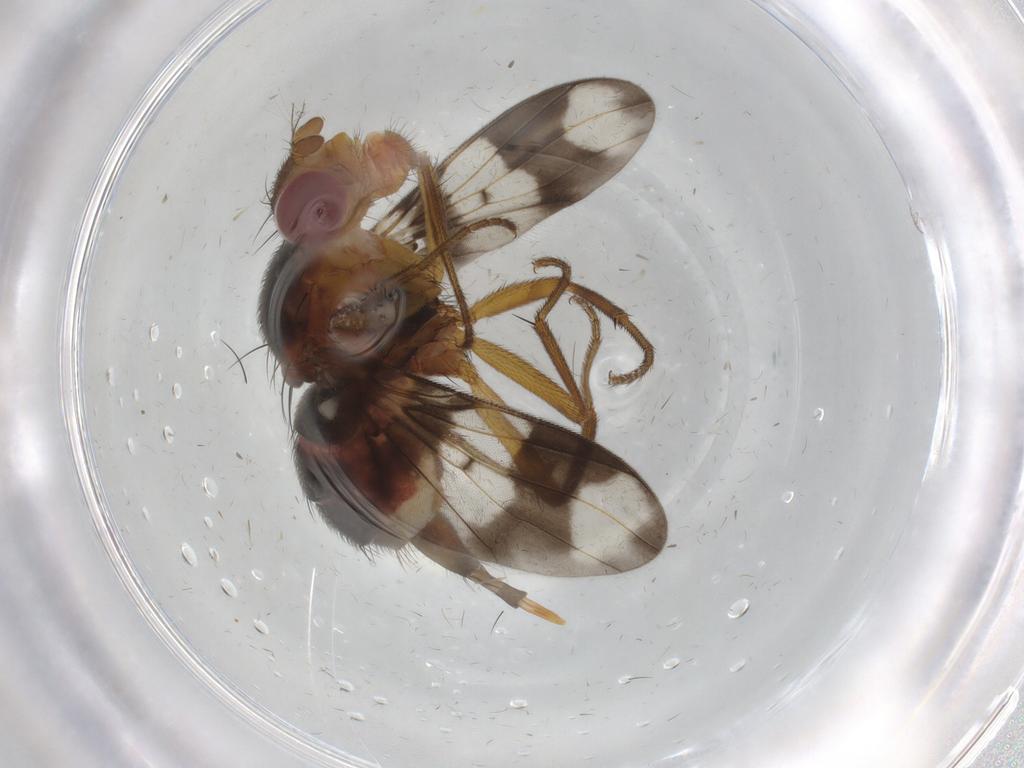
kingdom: Animalia
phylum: Arthropoda
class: Insecta
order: Diptera
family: Richardiidae
